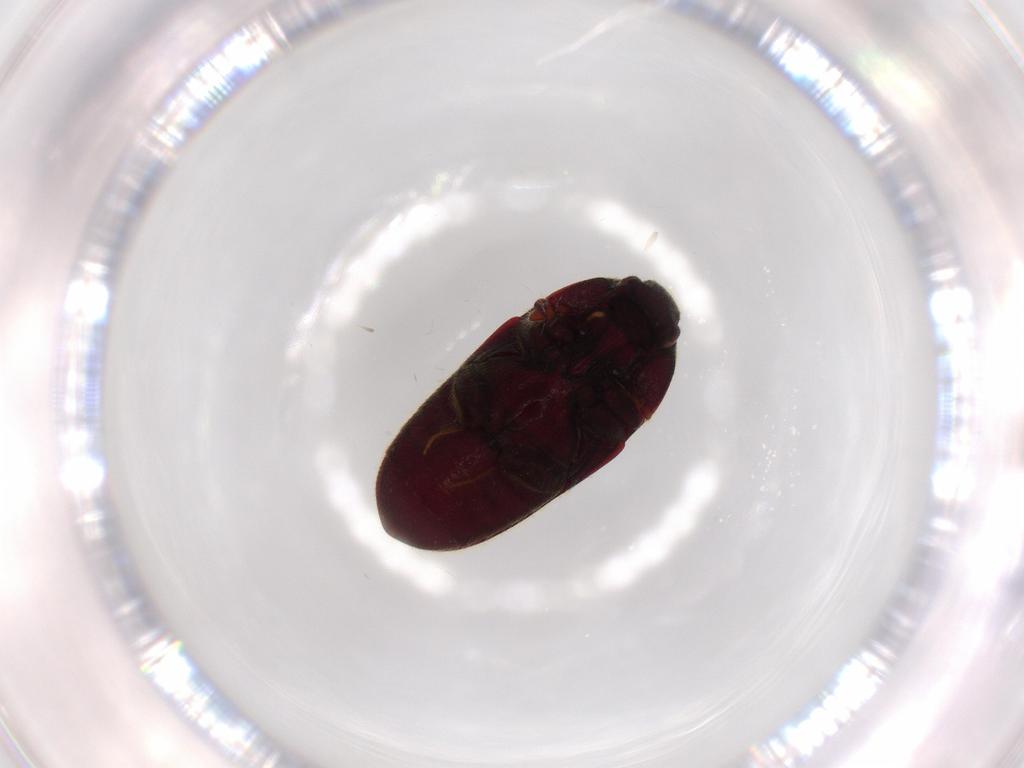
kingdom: Animalia
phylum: Arthropoda
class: Insecta
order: Coleoptera
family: Throscidae
